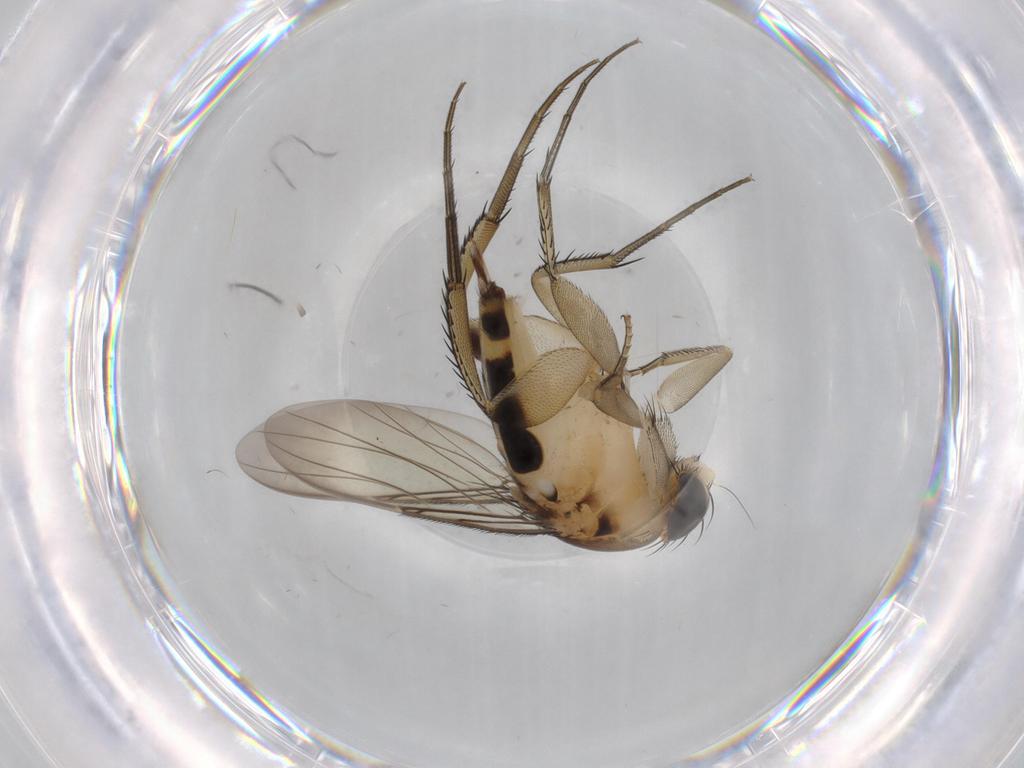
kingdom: Animalia
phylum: Arthropoda
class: Insecta
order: Diptera
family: Phoridae
